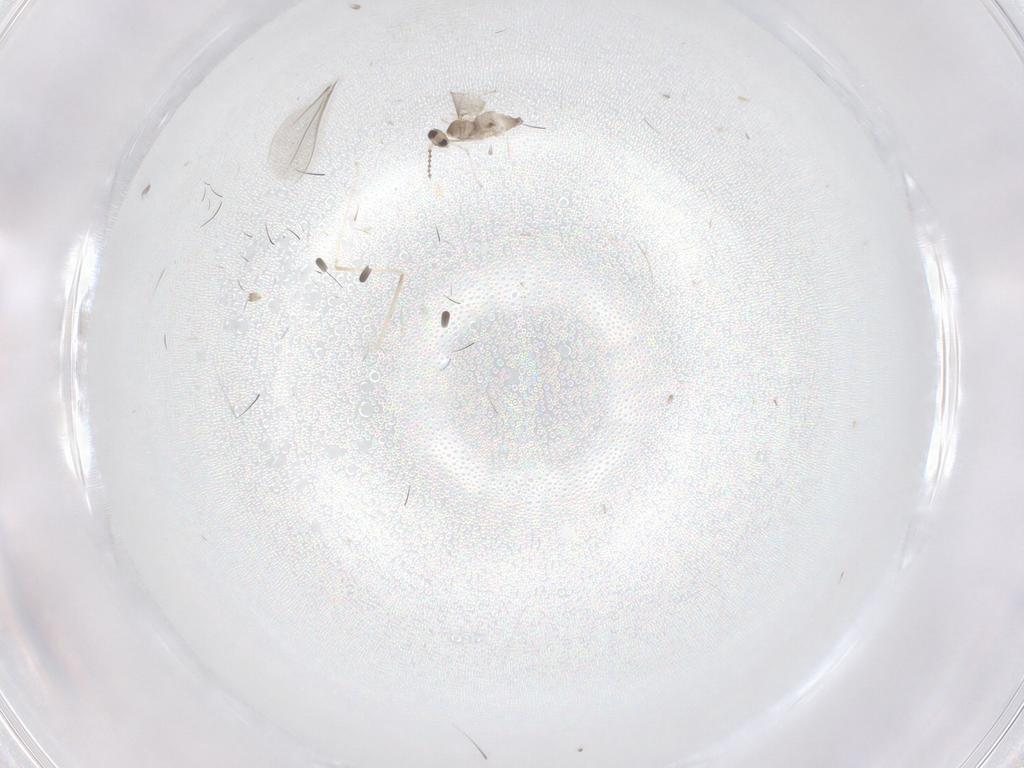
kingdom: Animalia
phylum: Arthropoda
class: Insecta
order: Diptera
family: Cecidomyiidae
